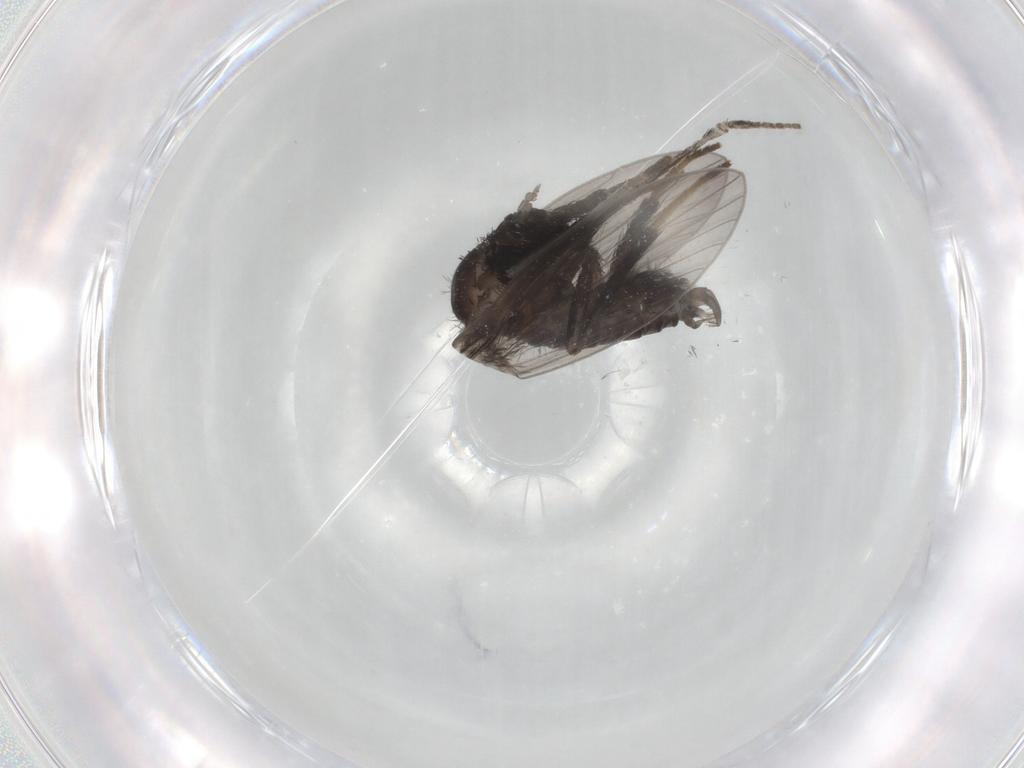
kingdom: Animalia
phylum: Arthropoda
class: Insecta
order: Diptera
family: Psychodidae
